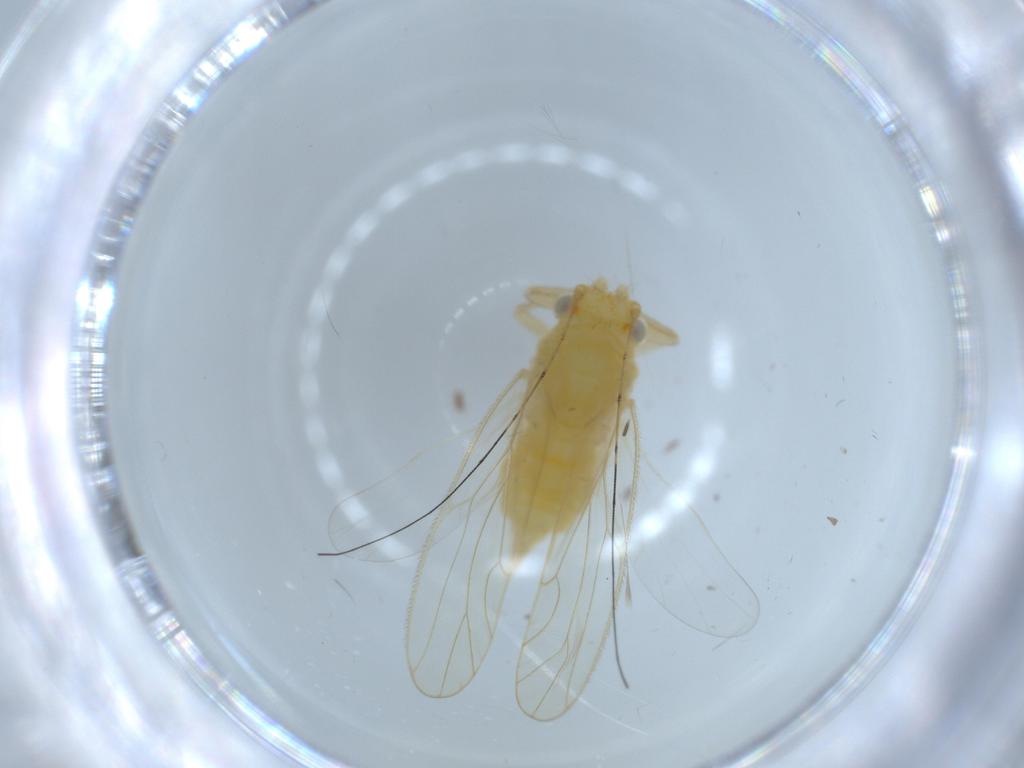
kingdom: Animalia
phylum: Arthropoda
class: Insecta
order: Hemiptera
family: Psyllidae
